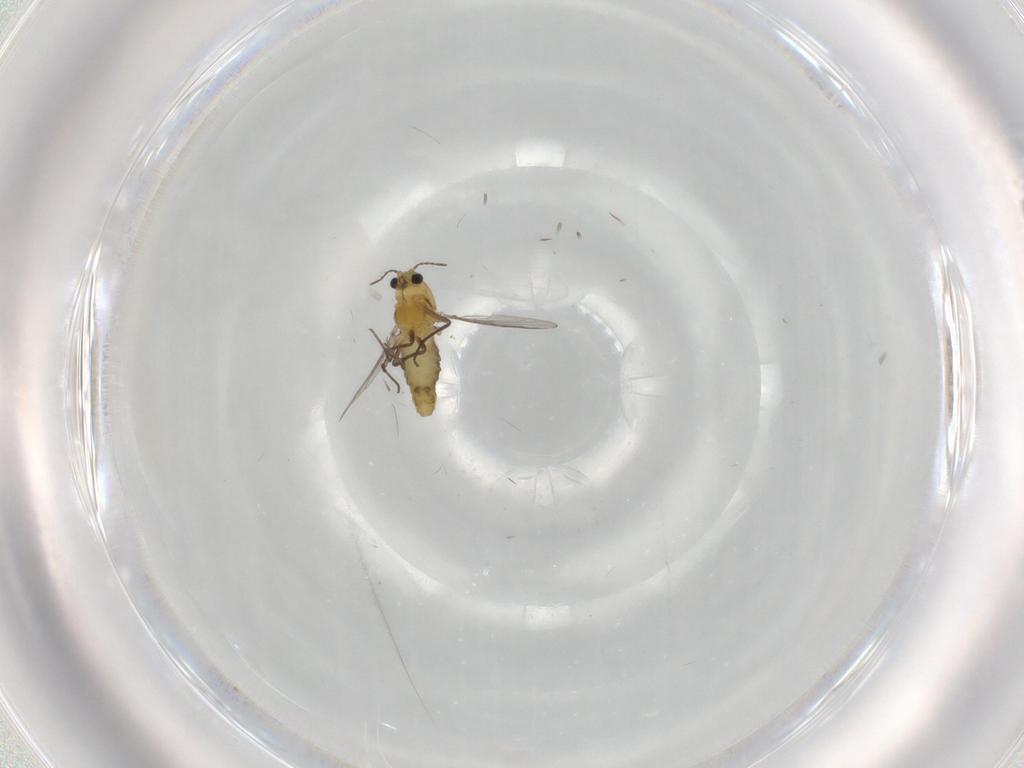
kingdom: Animalia
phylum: Arthropoda
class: Insecta
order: Diptera
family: Chironomidae
